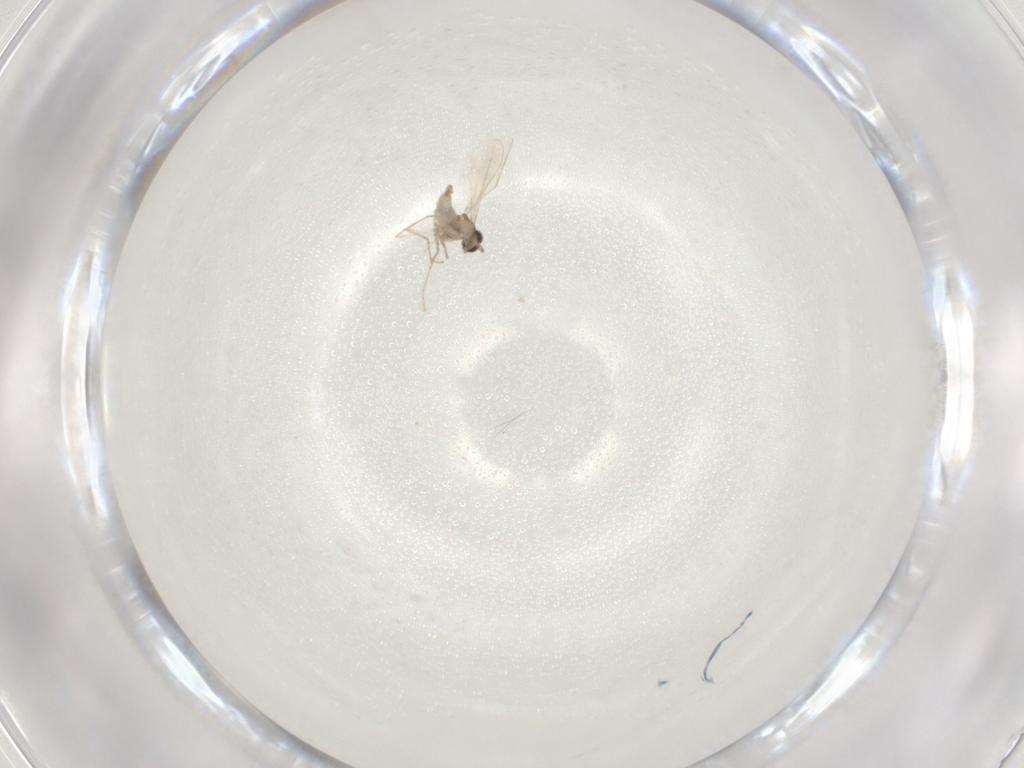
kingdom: Animalia
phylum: Arthropoda
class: Insecta
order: Diptera
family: Cecidomyiidae
